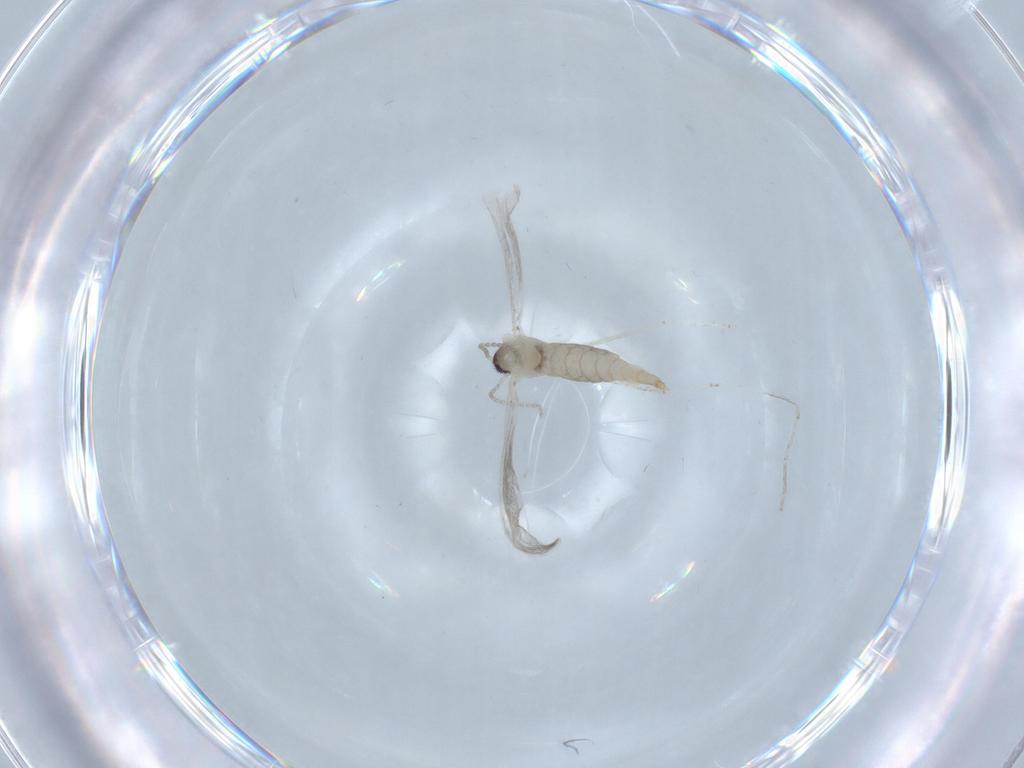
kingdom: Animalia
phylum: Arthropoda
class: Insecta
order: Diptera
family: Cecidomyiidae
